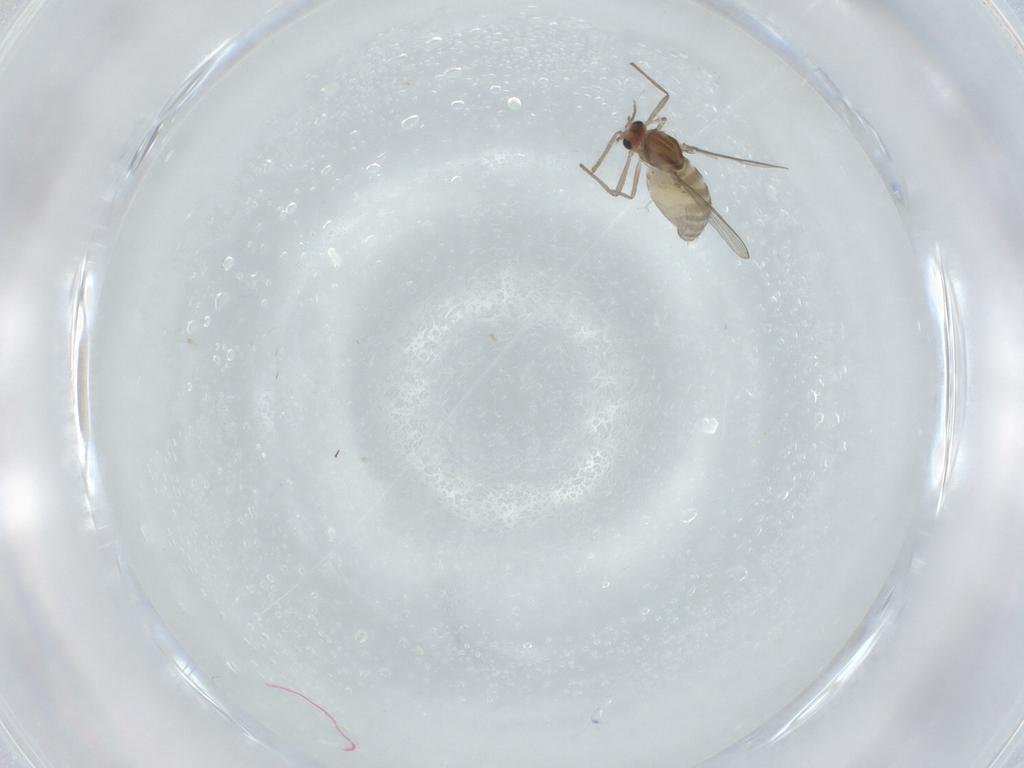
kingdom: Animalia
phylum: Arthropoda
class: Insecta
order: Diptera
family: Chironomidae
